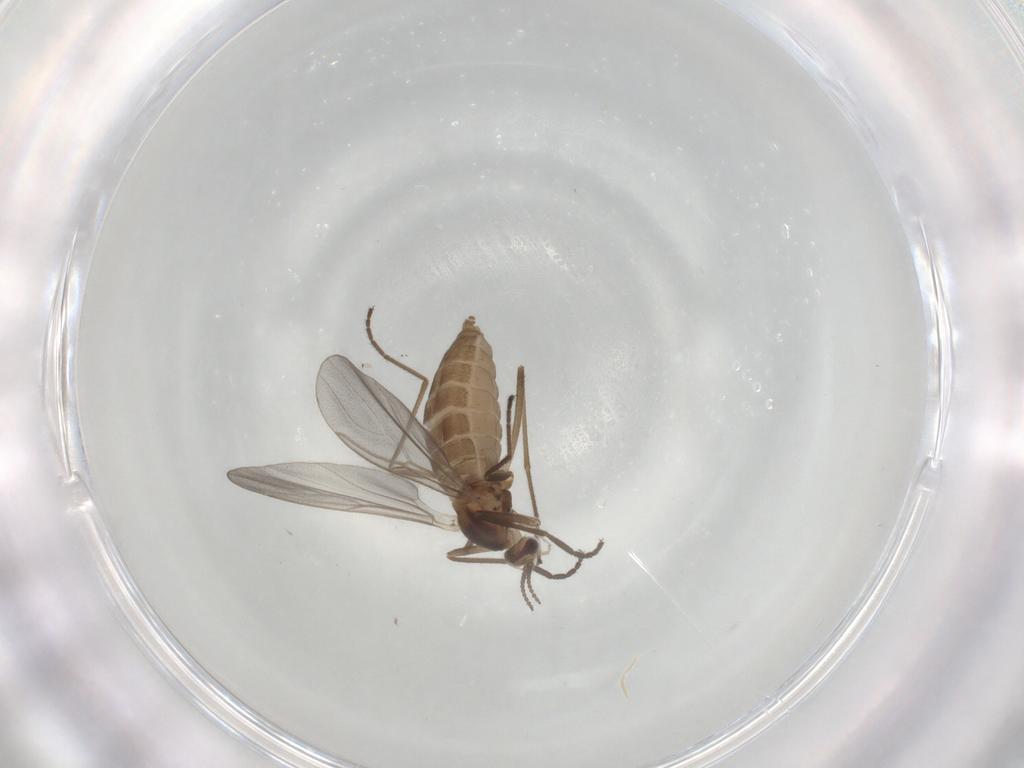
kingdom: Animalia
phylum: Arthropoda
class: Insecta
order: Diptera
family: Cecidomyiidae
